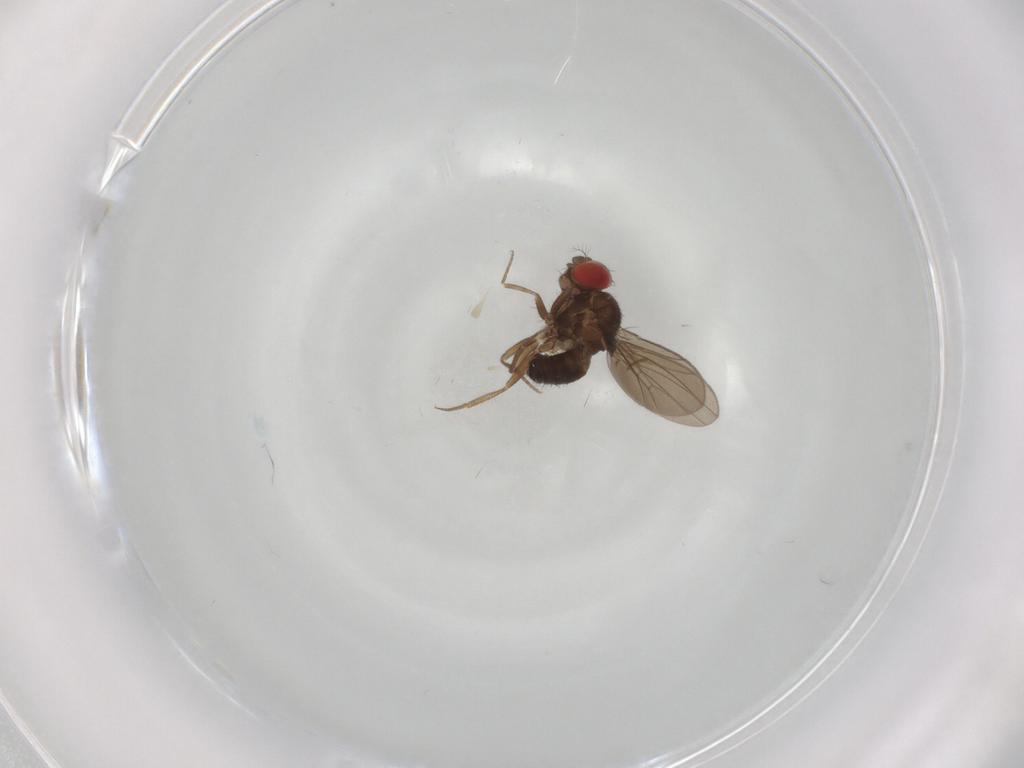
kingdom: Animalia
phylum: Arthropoda
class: Insecta
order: Diptera
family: Drosophilidae
